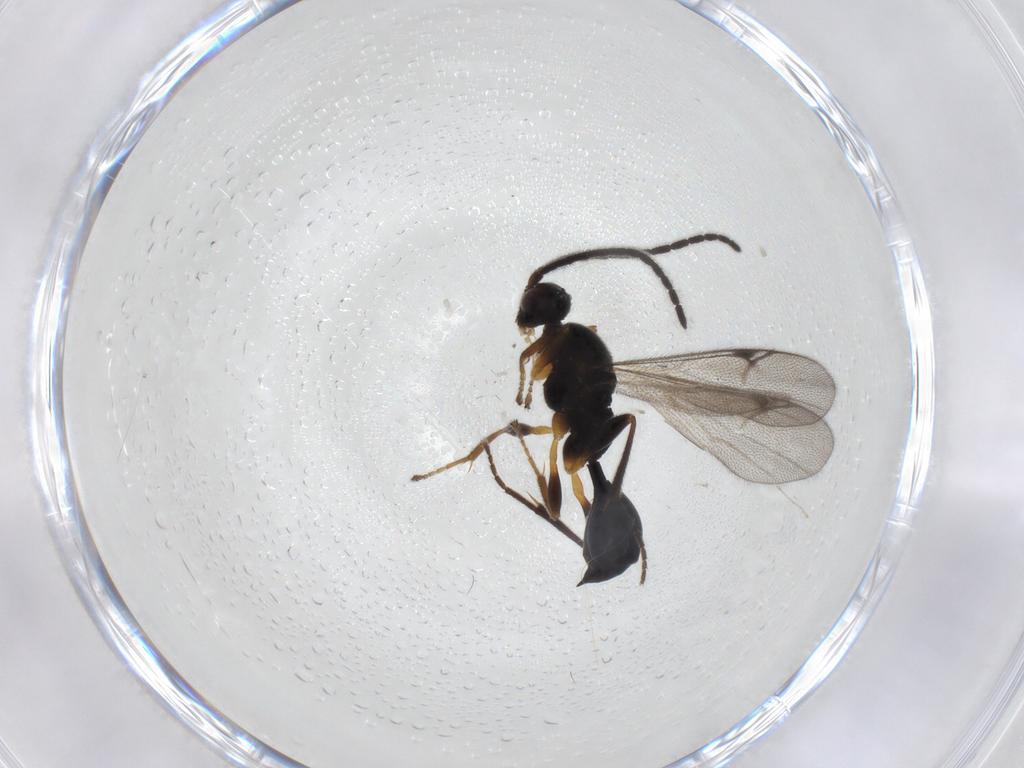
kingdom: Animalia
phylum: Arthropoda
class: Insecta
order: Hymenoptera
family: Proctotrupidae
